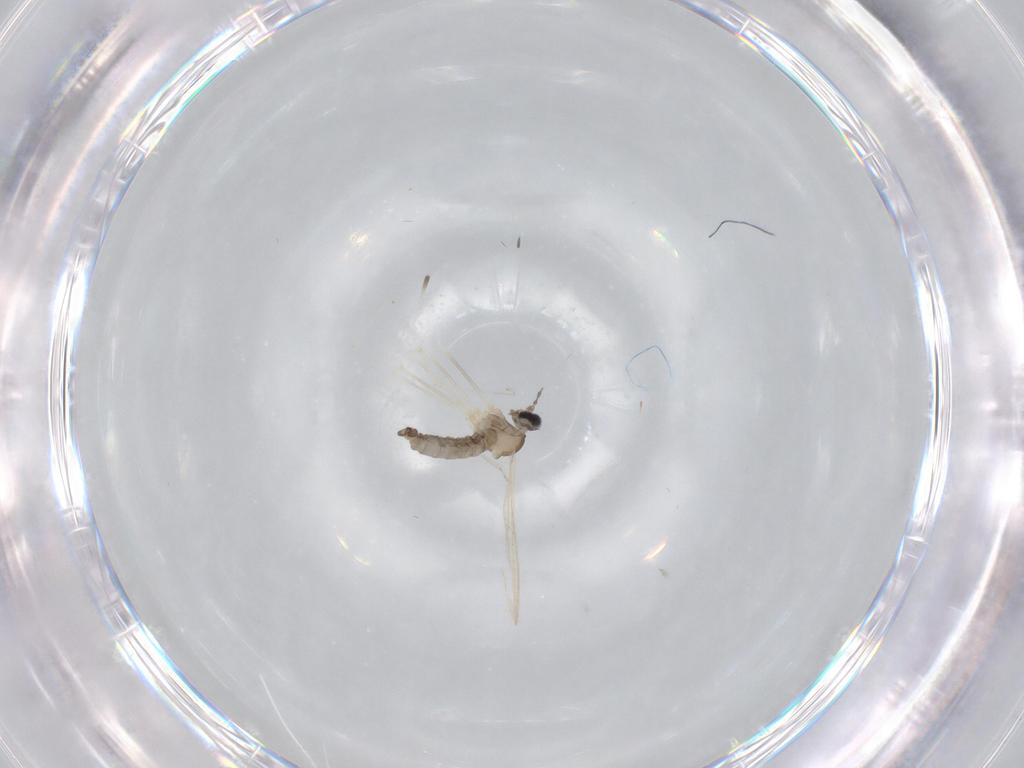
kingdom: Animalia
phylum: Arthropoda
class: Insecta
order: Diptera
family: Cecidomyiidae
